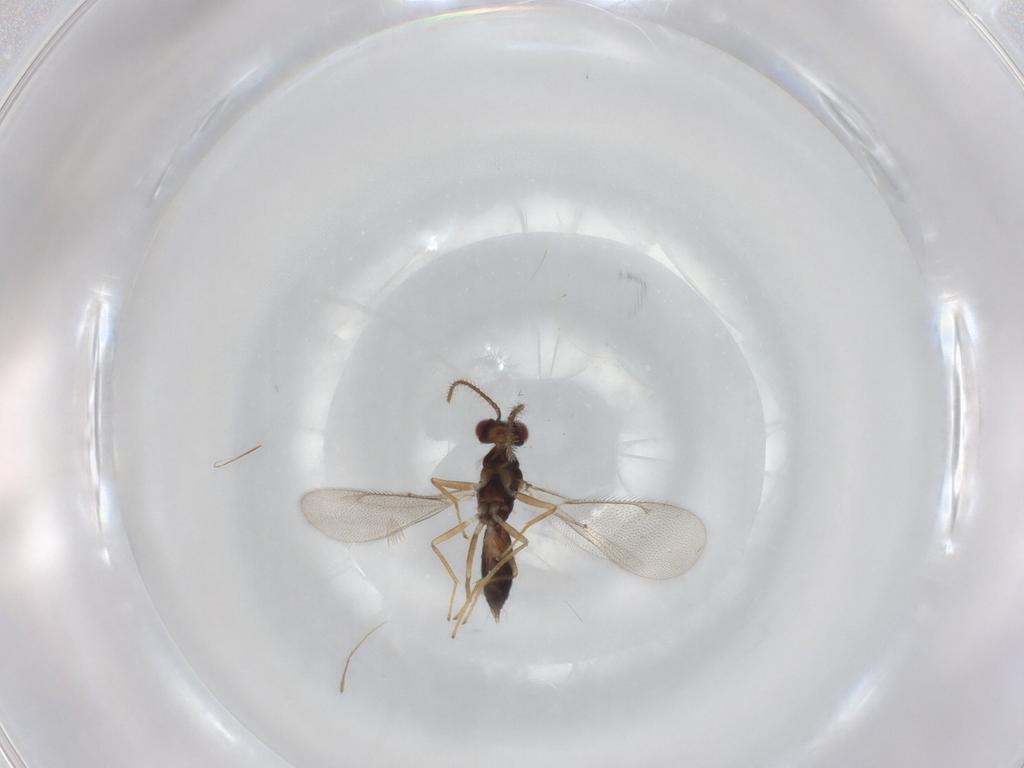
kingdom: Animalia
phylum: Arthropoda
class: Insecta
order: Hymenoptera
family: Eulophidae
